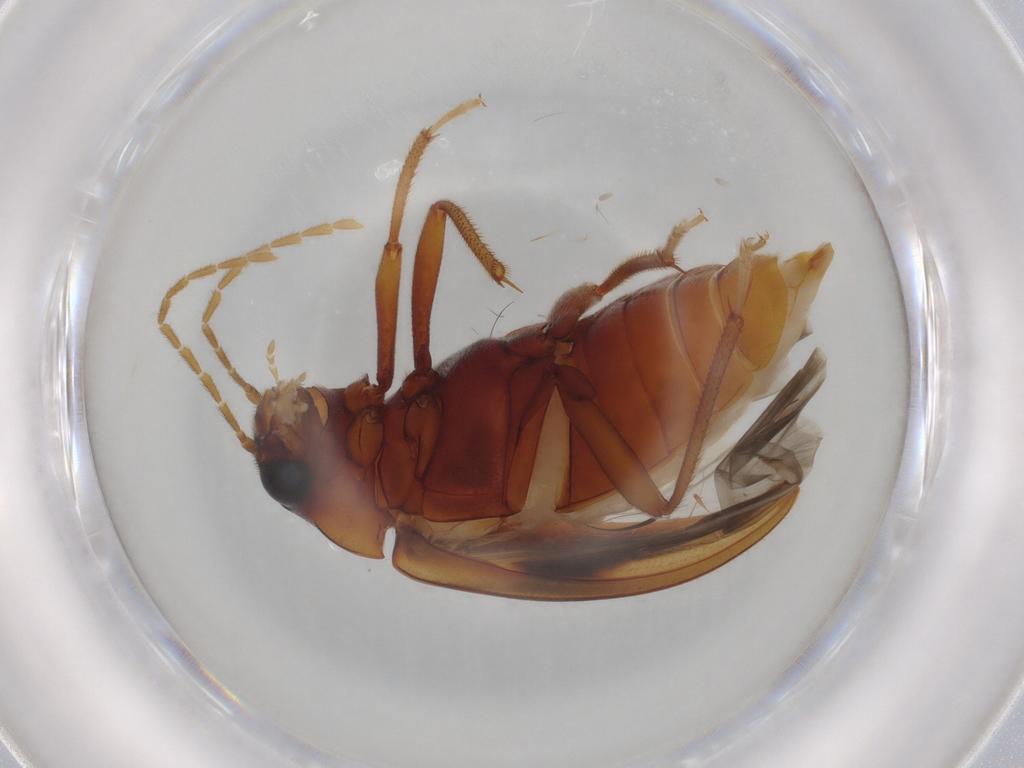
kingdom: Animalia
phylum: Arthropoda
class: Insecta
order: Coleoptera
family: Ptilodactylidae
